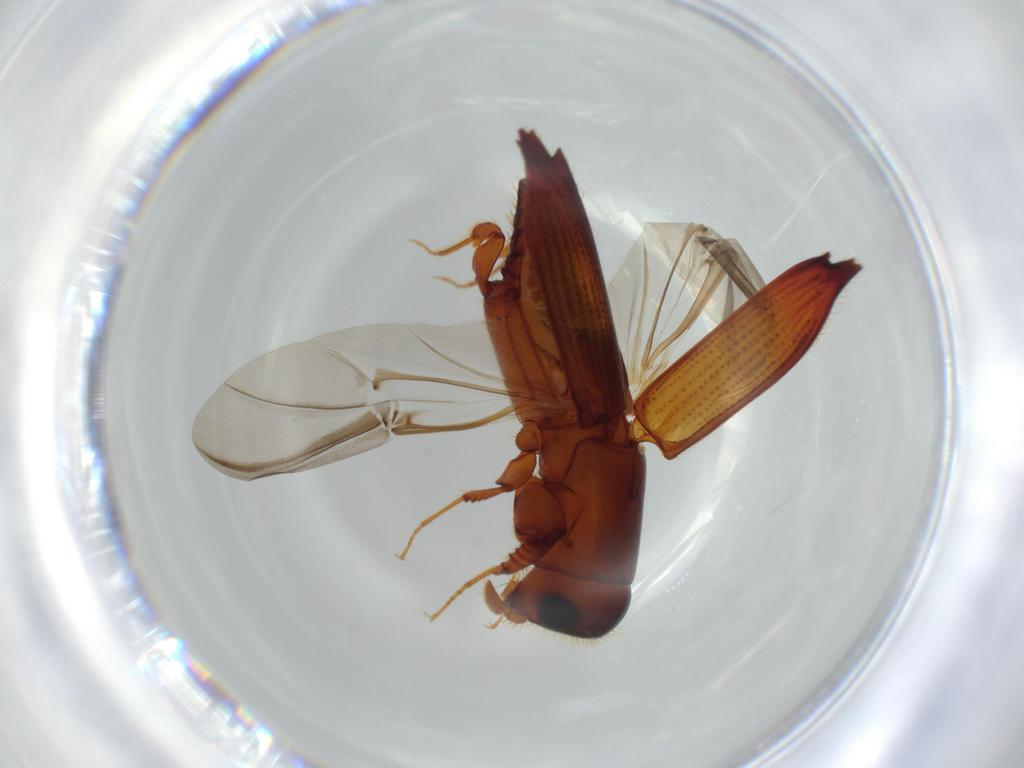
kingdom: Animalia
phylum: Arthropoda
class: Insecta
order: Coleoptera
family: Curculionidae
